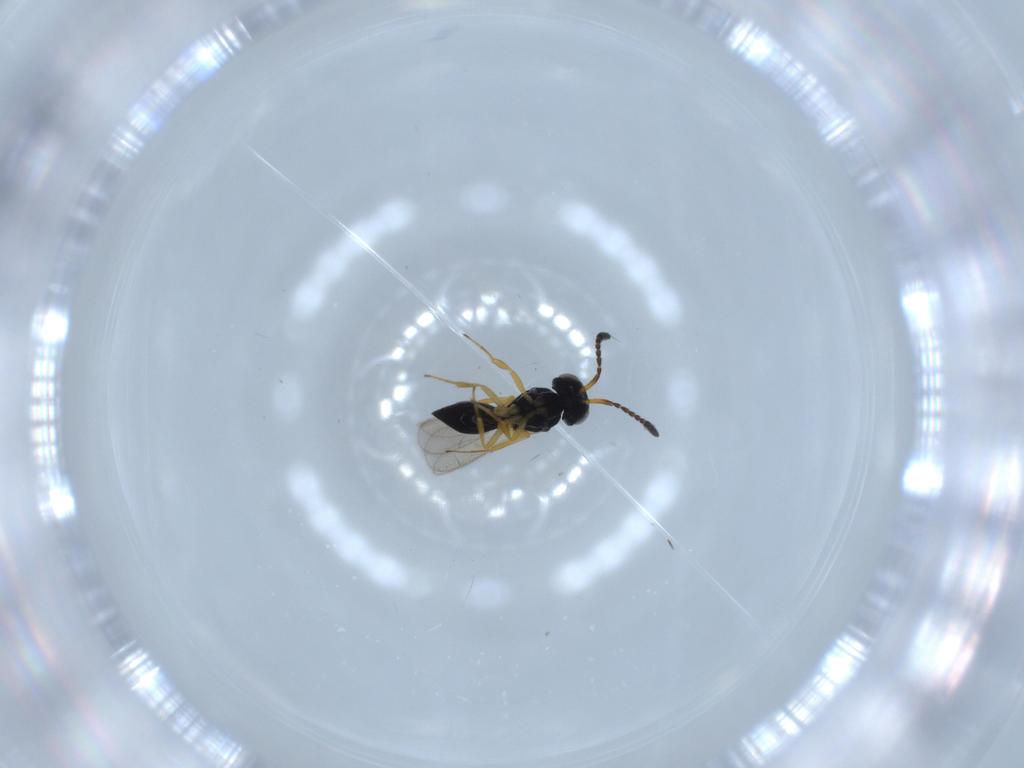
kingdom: Animalia
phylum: Arthropoda
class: Insecta
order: Hymenoptera
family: Scelionidae
